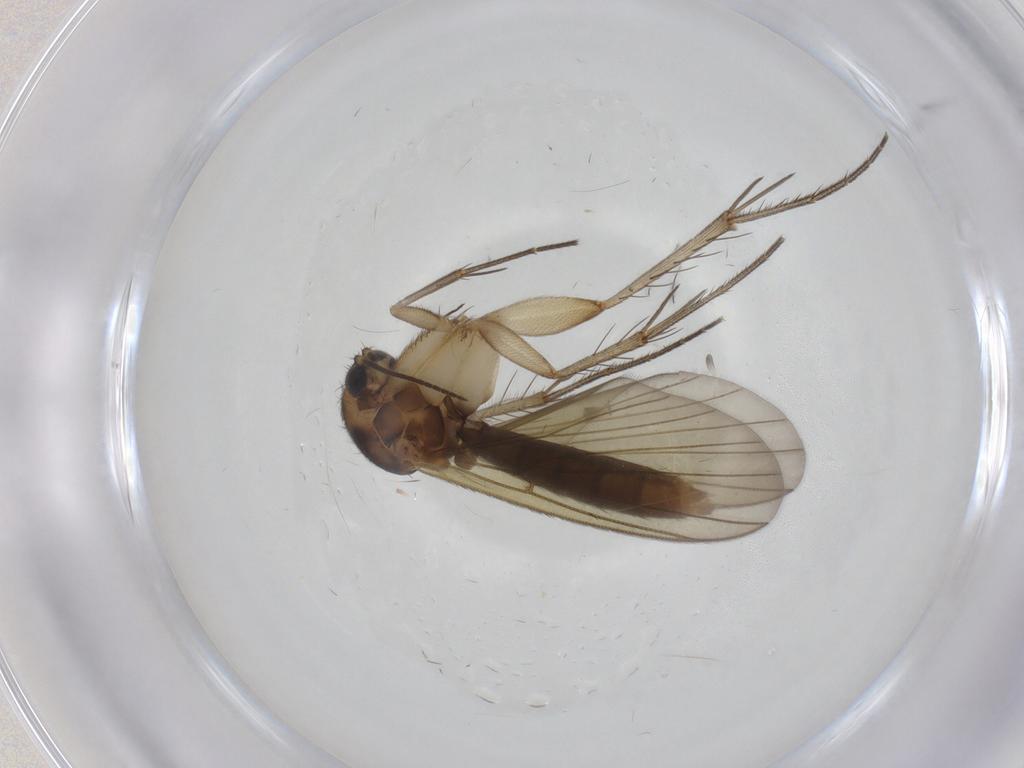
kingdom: Animalia
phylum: Arthropoda
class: Insecta
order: Diptera
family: Mycetophilidae
